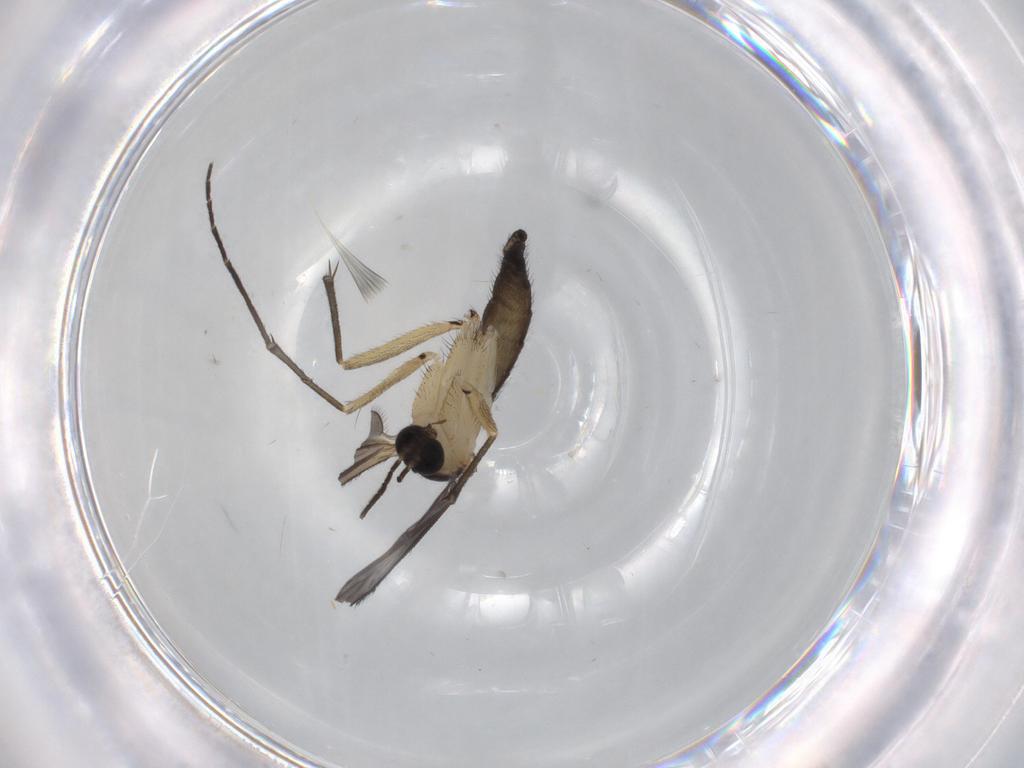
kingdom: Animalia
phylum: Arthropoda
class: Insecta
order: Diptera
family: Sciaridae
